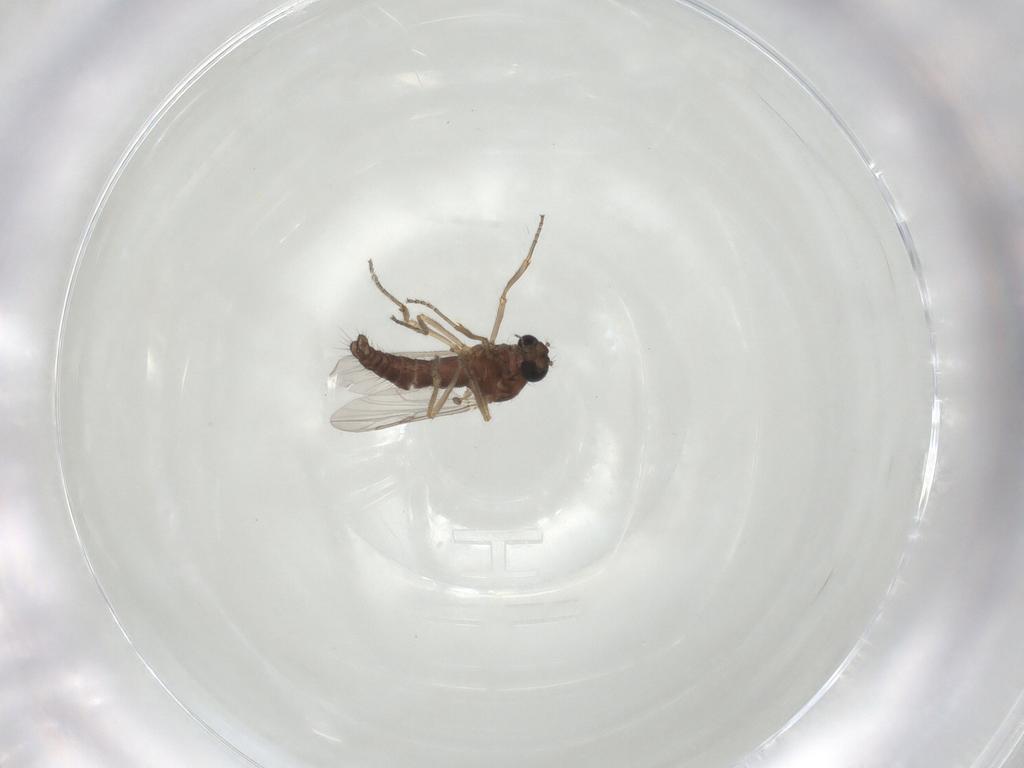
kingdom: Animalia
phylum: Arthropoda
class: Insecta
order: Diptera
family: Ceratopogonidae
